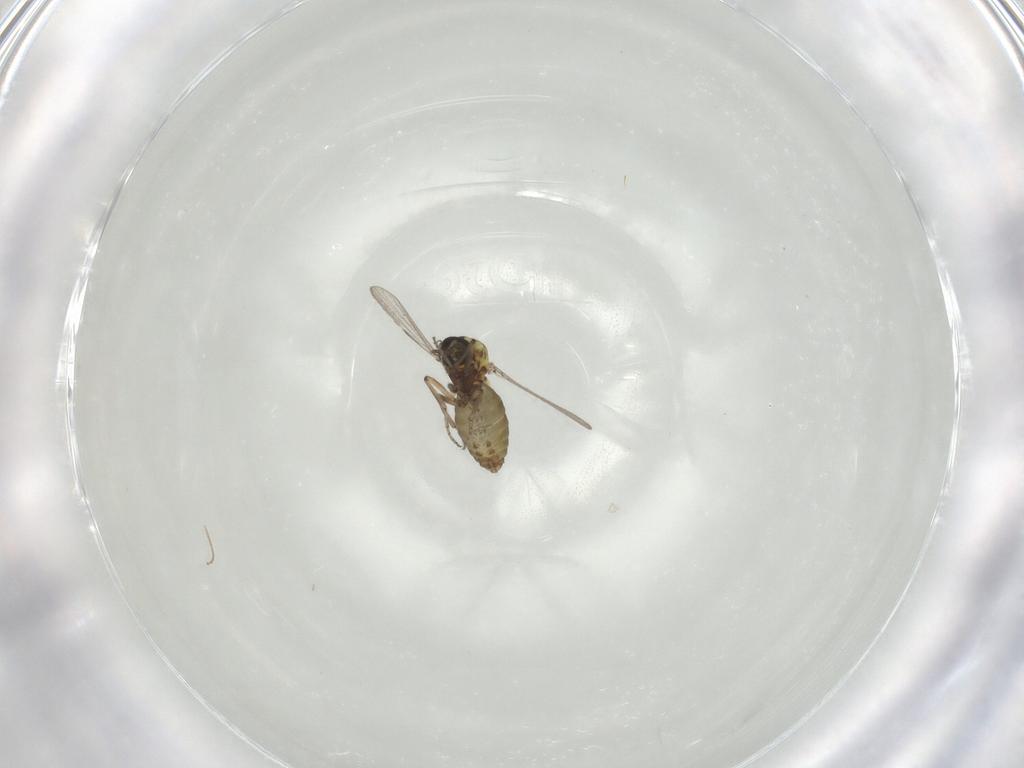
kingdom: Animalia
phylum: Arthropoda
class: Insecta
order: Diptera
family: Ceratopogonidae
